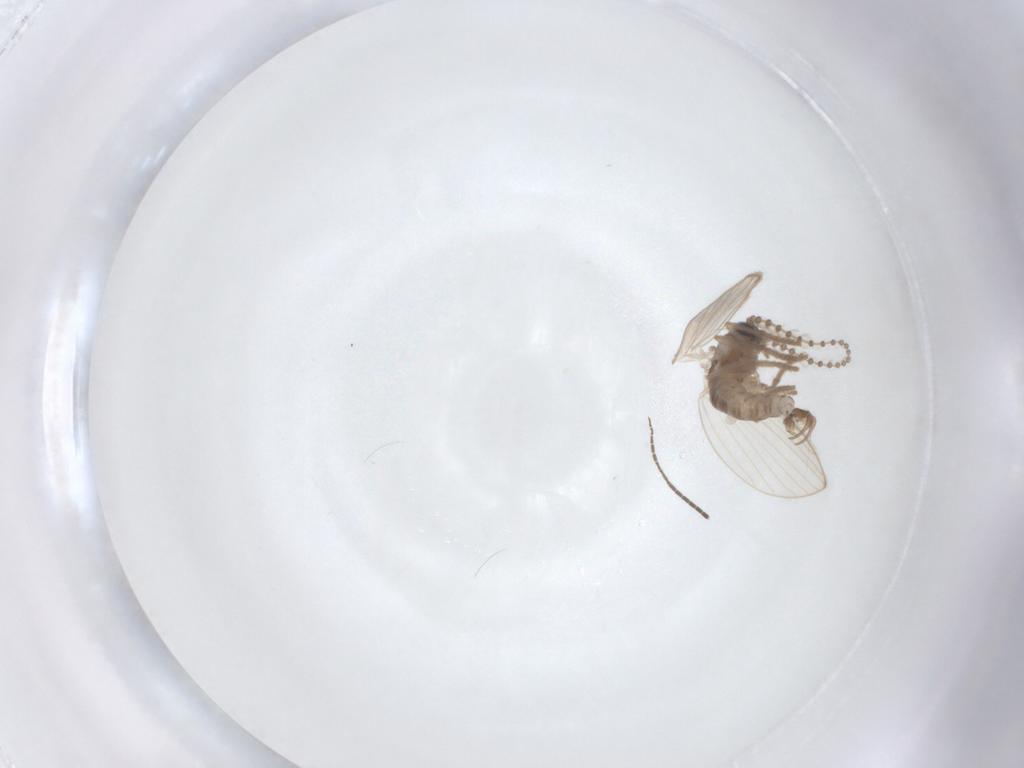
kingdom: Animalia
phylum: Arthropoda
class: Insecta
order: Diptera
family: Psychodidae
